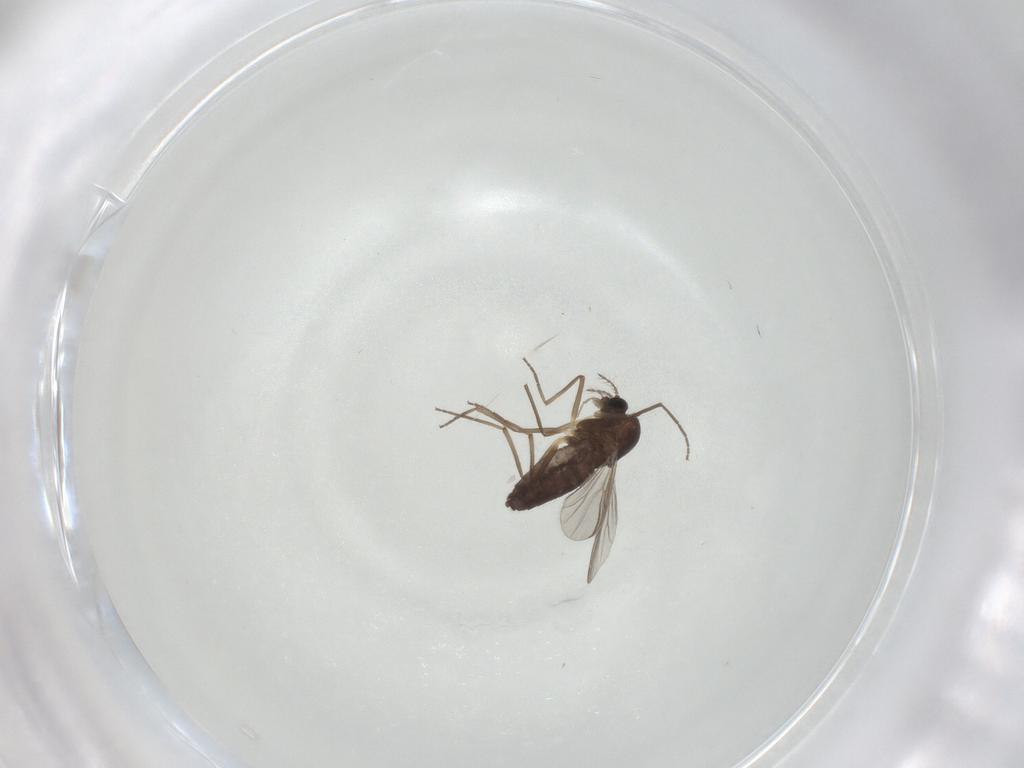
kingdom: Animalia
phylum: Arthropoda
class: Insecta
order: Diptera
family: Chironomidae
